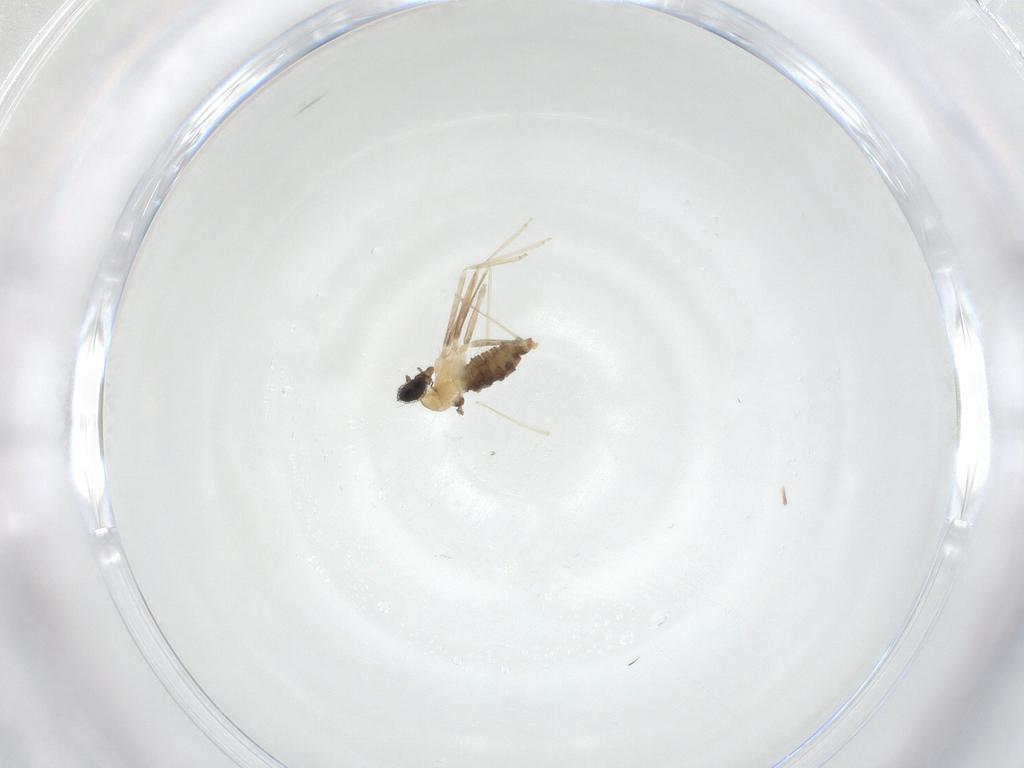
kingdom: Animalia
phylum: Arthropoda
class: Insecta
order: Diptera
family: Cecidomyiidae
